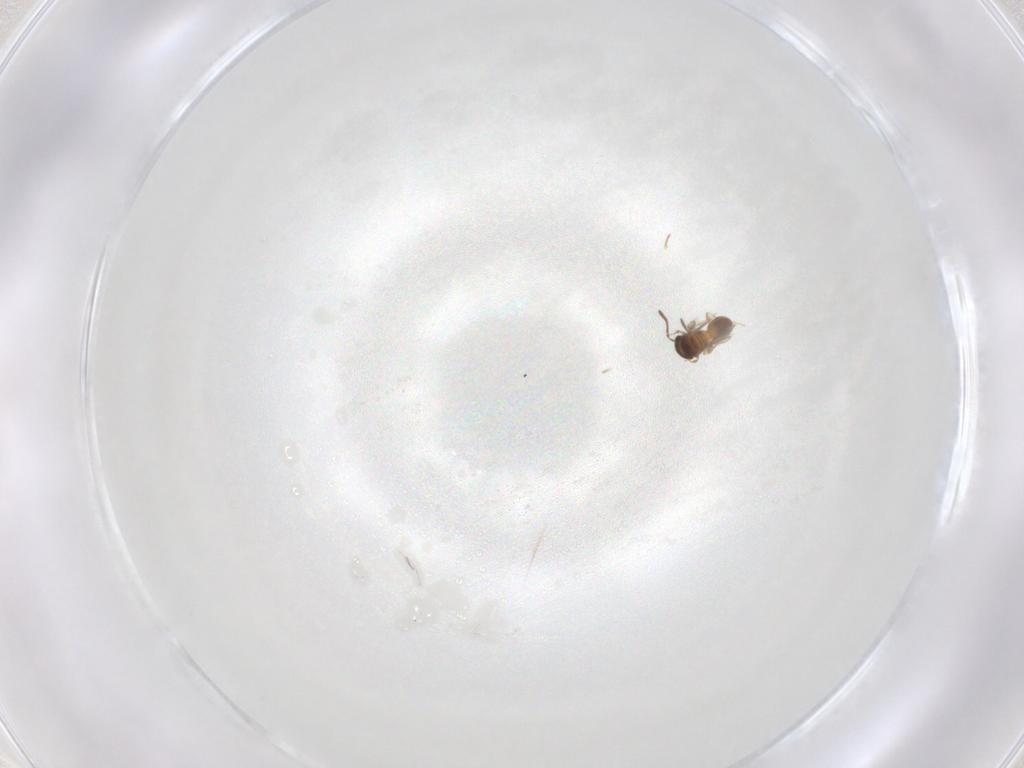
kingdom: Animalia
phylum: Arthropoda
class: Insecta
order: Hymenoptera
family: Scelionidae
